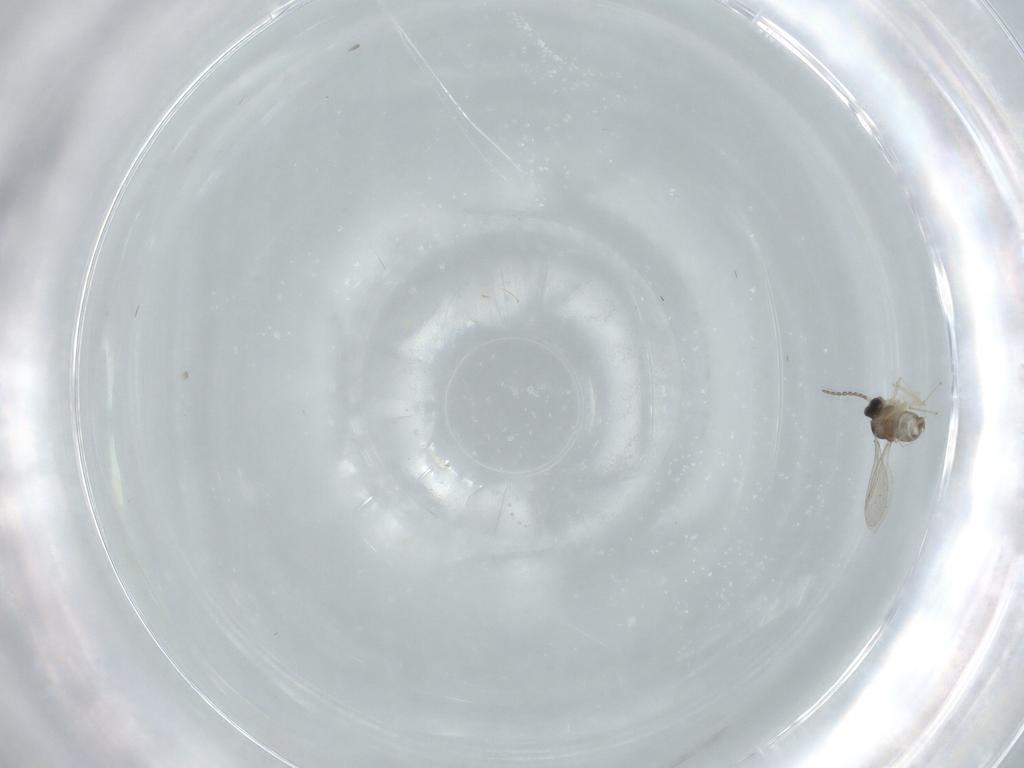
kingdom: Animalia
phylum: Arthropoda
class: Insecta
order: Diptera
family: Cecidomyiidae
